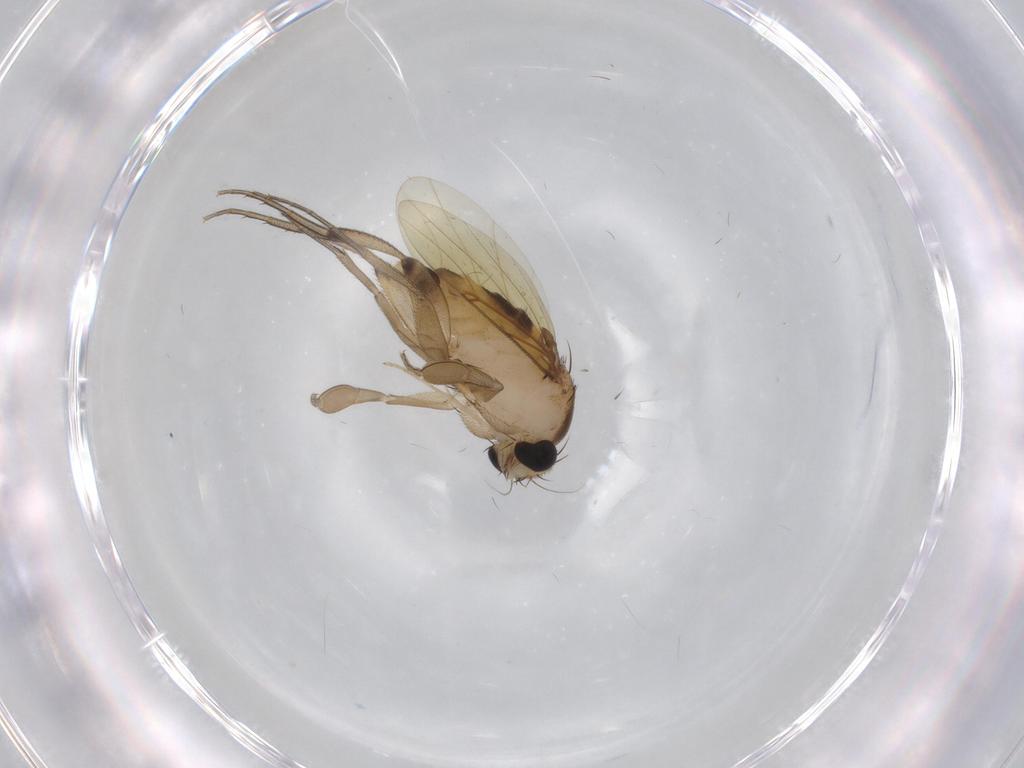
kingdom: Animalia
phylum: Arthropoda
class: Insecta
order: Diptera
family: Phoridae
